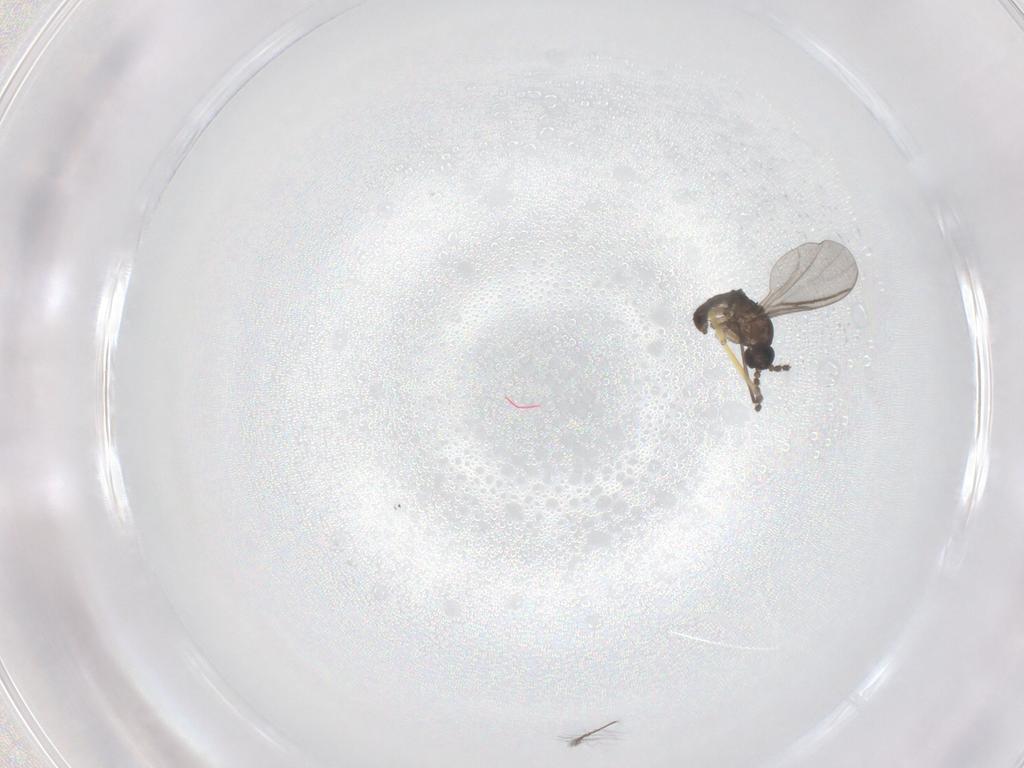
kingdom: Animalia
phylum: Arthropoda
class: Insecta
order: Diptera
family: Chironomidae
